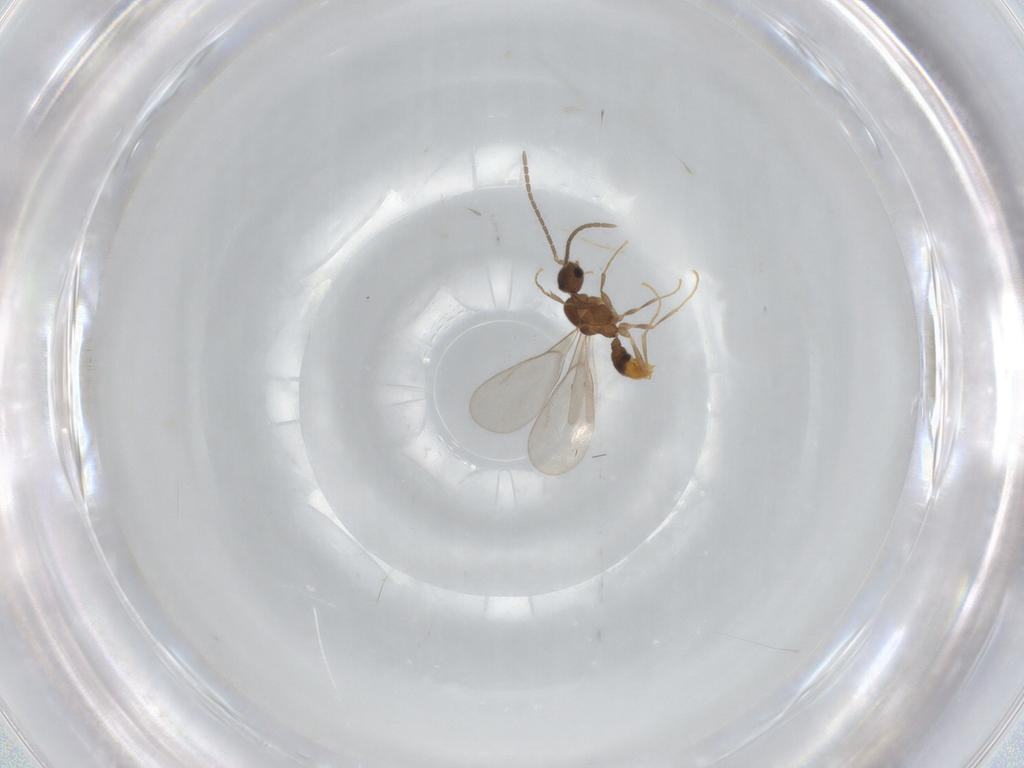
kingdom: Animalia
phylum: Arthropoda
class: Insecta
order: Hymenoptera
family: Formicidae
